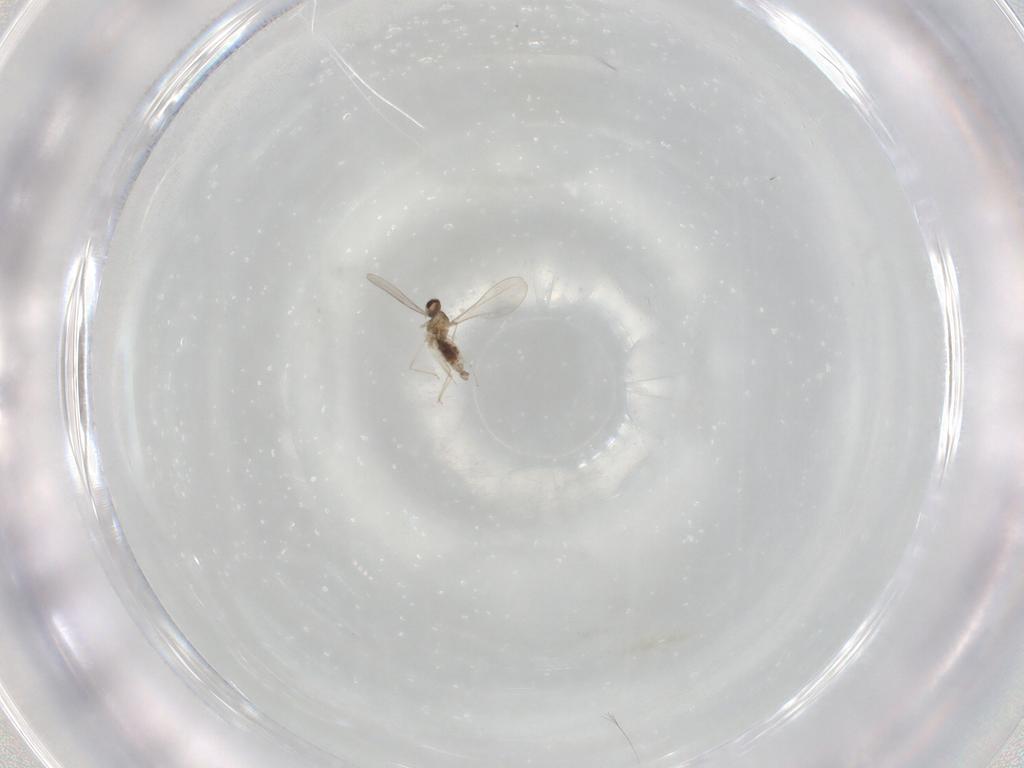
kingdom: Animalia
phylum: Arthropoda
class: Insecta
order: Diptera
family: Dolichopodidae
